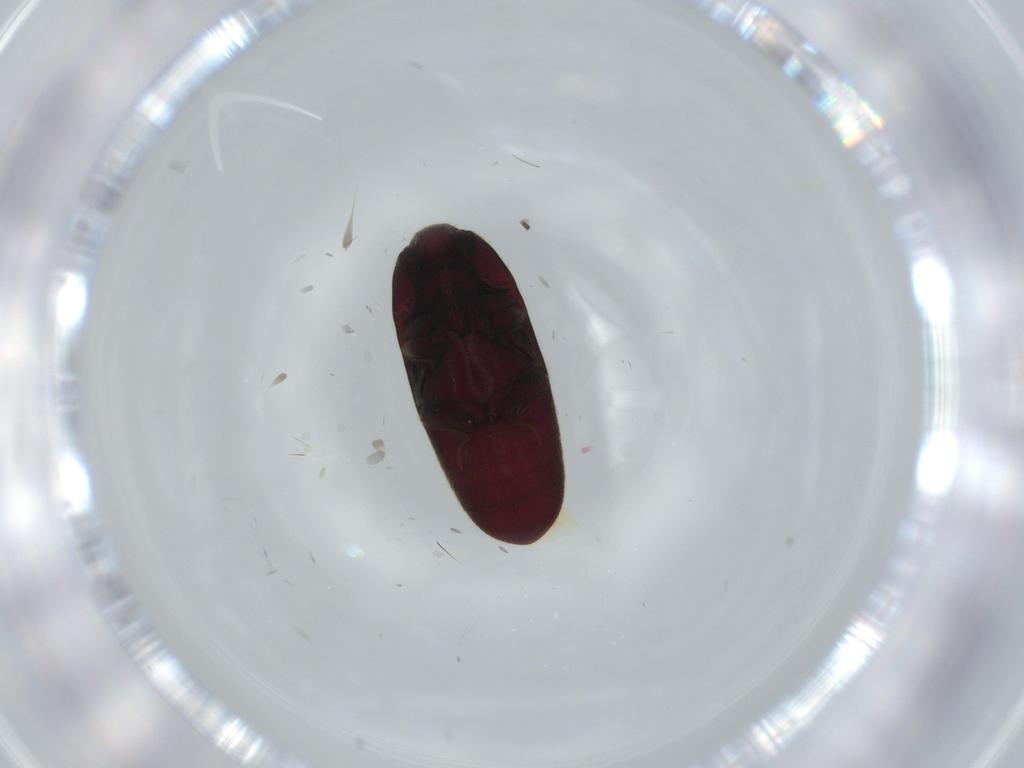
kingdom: Animalia
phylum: Arthropoda
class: Insecta
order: Coleoptera
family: Throscidae
